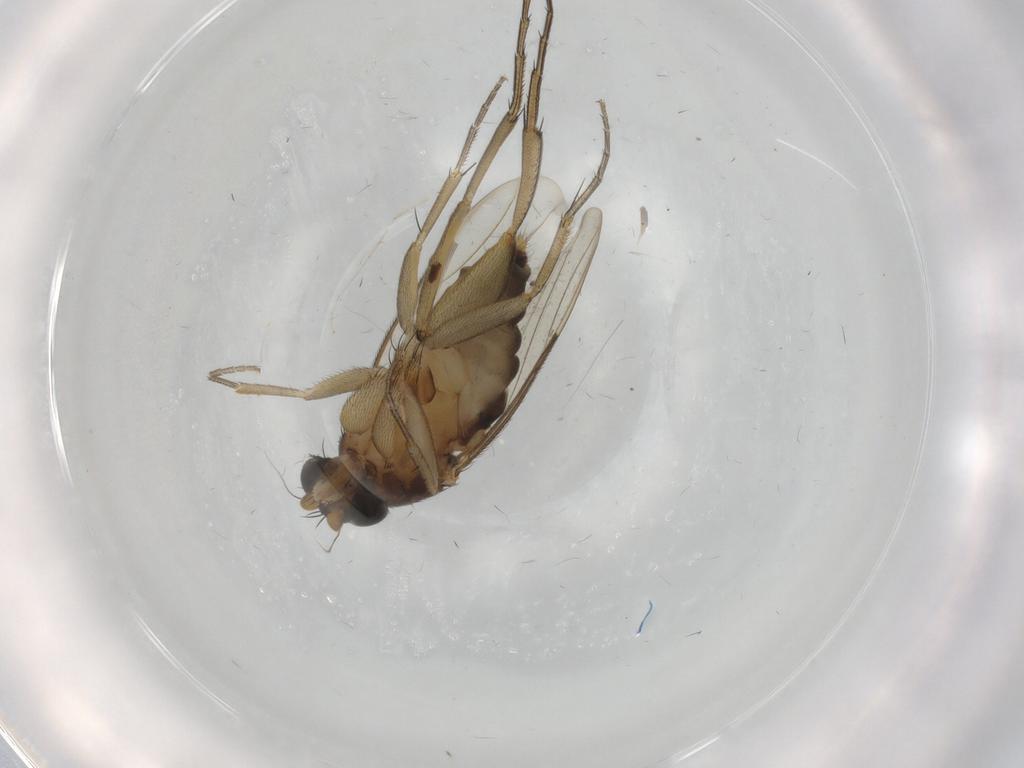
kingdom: Animalia
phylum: Arthropoda
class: Insecta
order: Diptera
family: Phoridae
